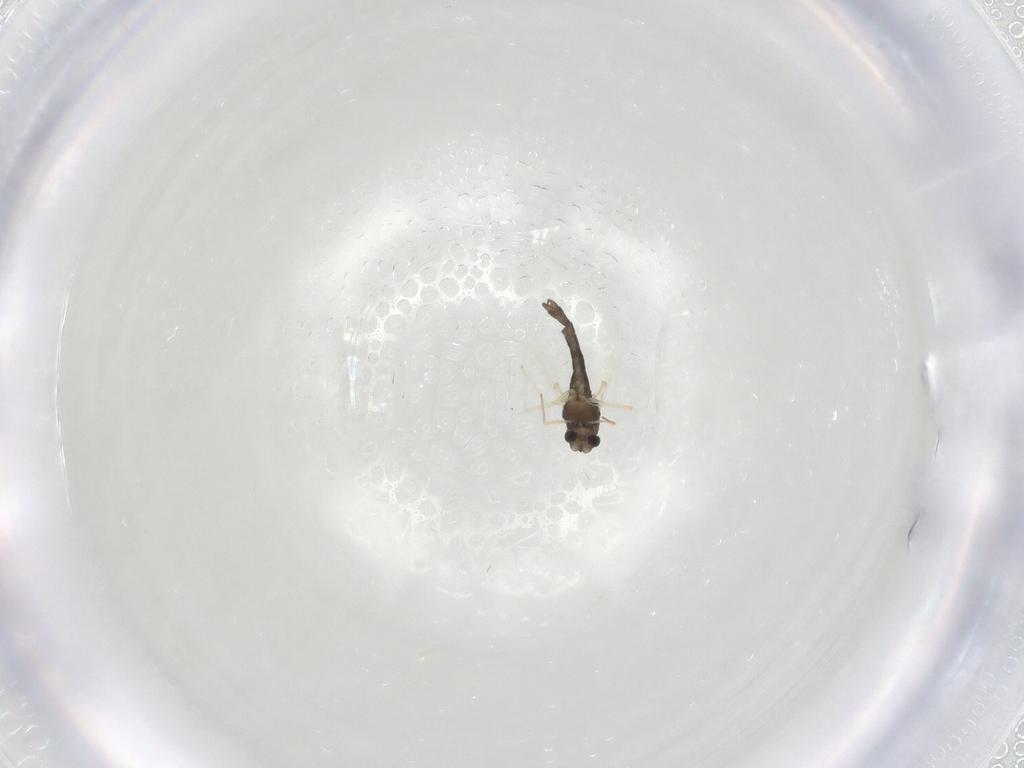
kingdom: Animalia
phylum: Arthropoda
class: Insecta
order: Diptera
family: Chironomidae
